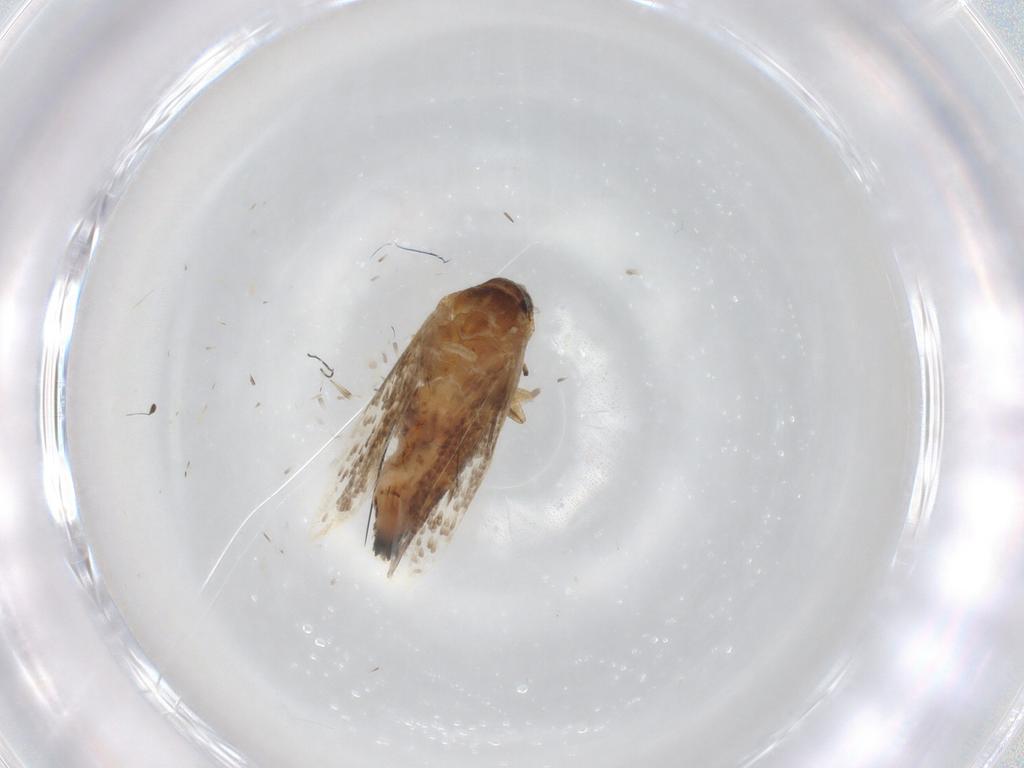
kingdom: Animalia
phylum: Arthropoda
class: Insecta
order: Lepidoptera
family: Cosmopterigidae
